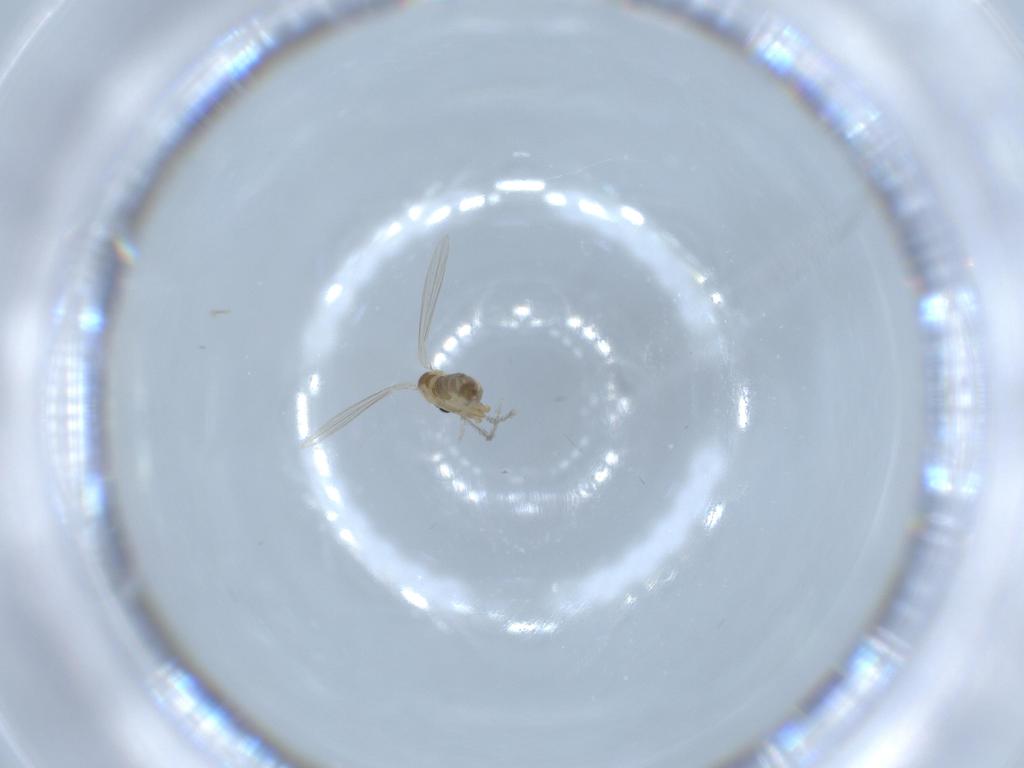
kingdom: Animalia
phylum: Arthropoda
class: Insecta
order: Diptera
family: Psychodidae
